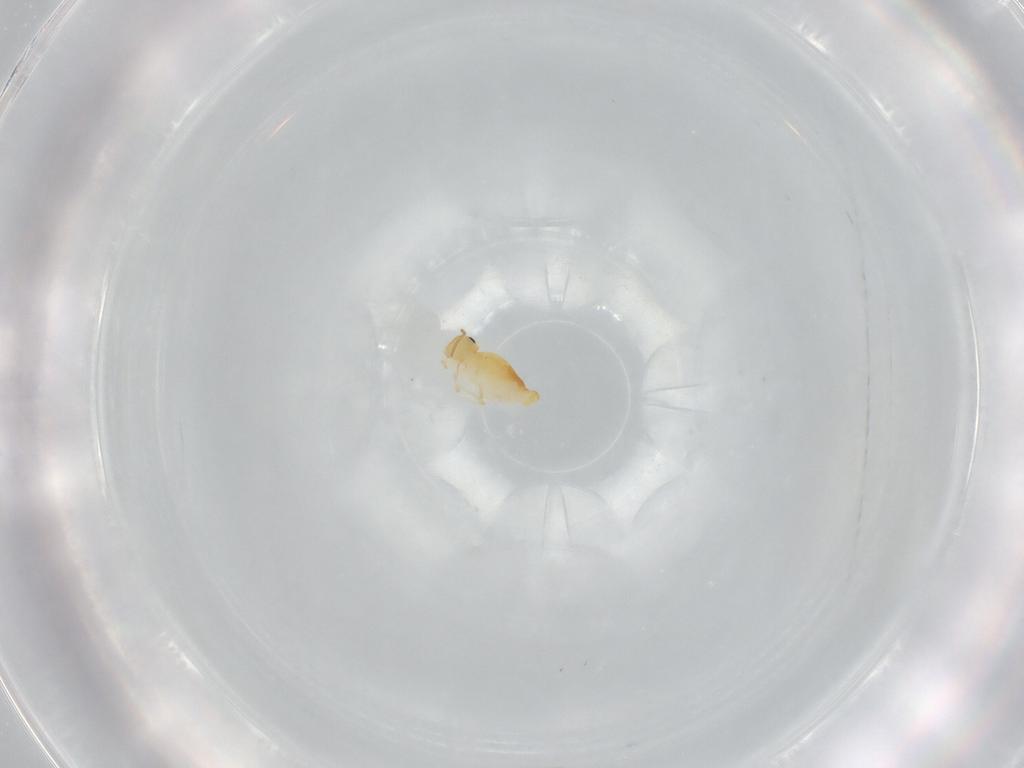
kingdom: Animalia
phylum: Arthropoda
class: Collembola
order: Symphypleona
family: Bourletiellidae
